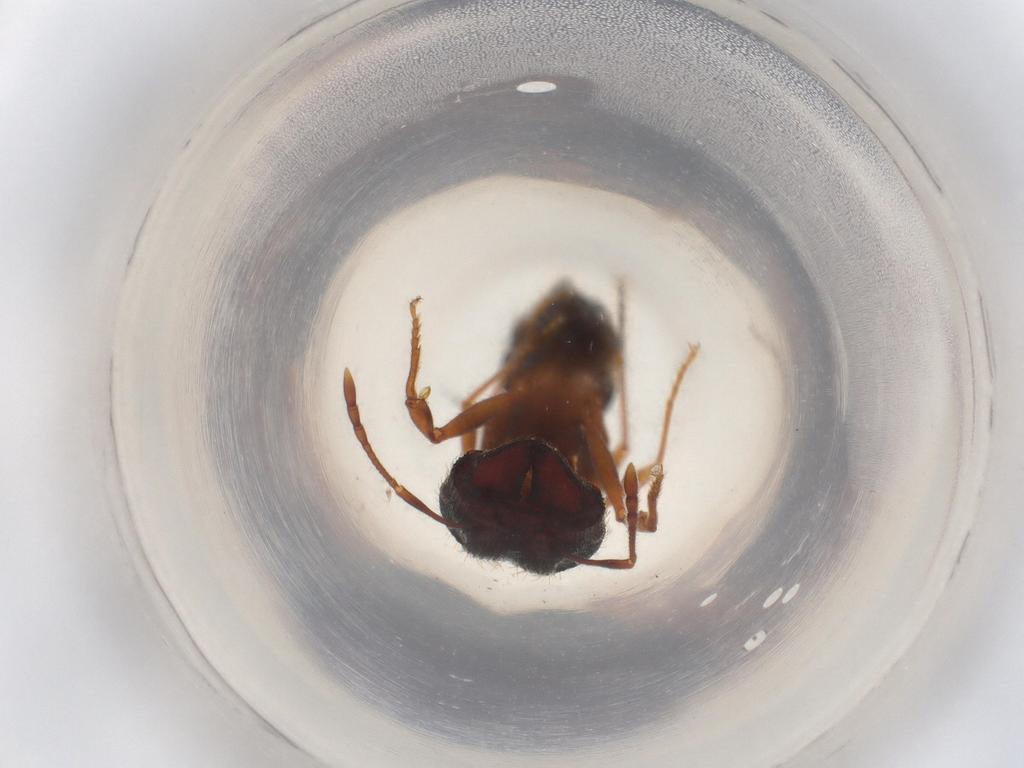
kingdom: Animalia
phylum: Arthropoda
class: Insecta
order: Hymenoptera
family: Formicidae
